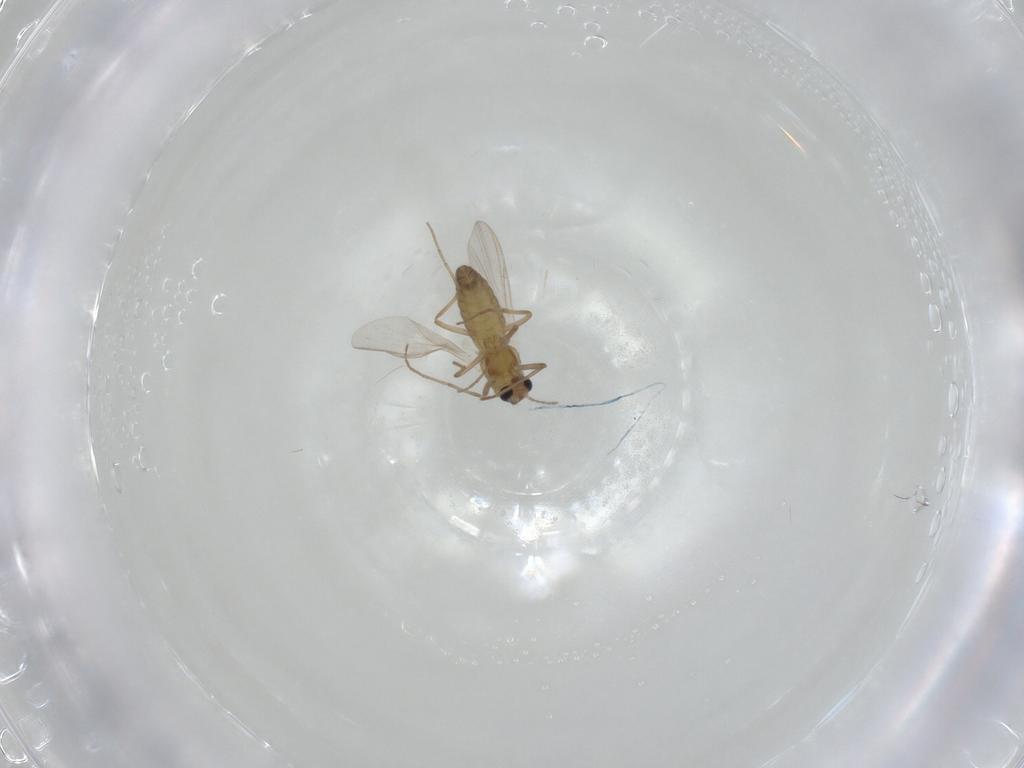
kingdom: Animalia
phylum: Arthropoda
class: Insecta
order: Diptera
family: Chironomidae
